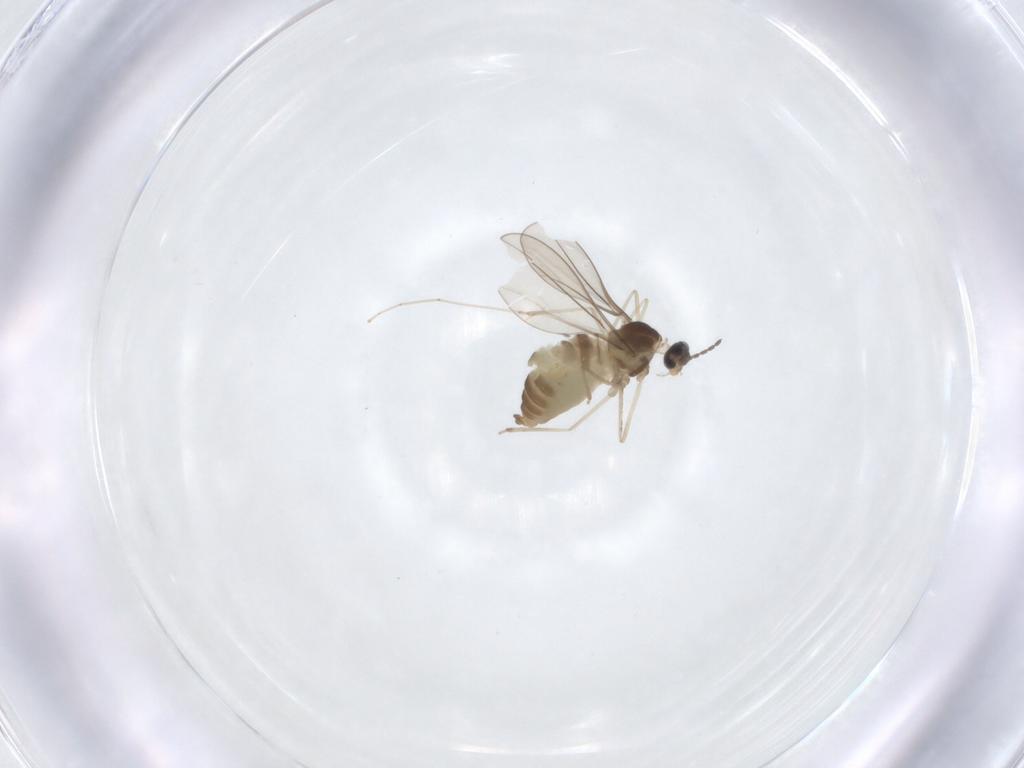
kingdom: Animalia
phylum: Arthropoda
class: Insecta
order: Diptera
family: Cecidomyiidae
